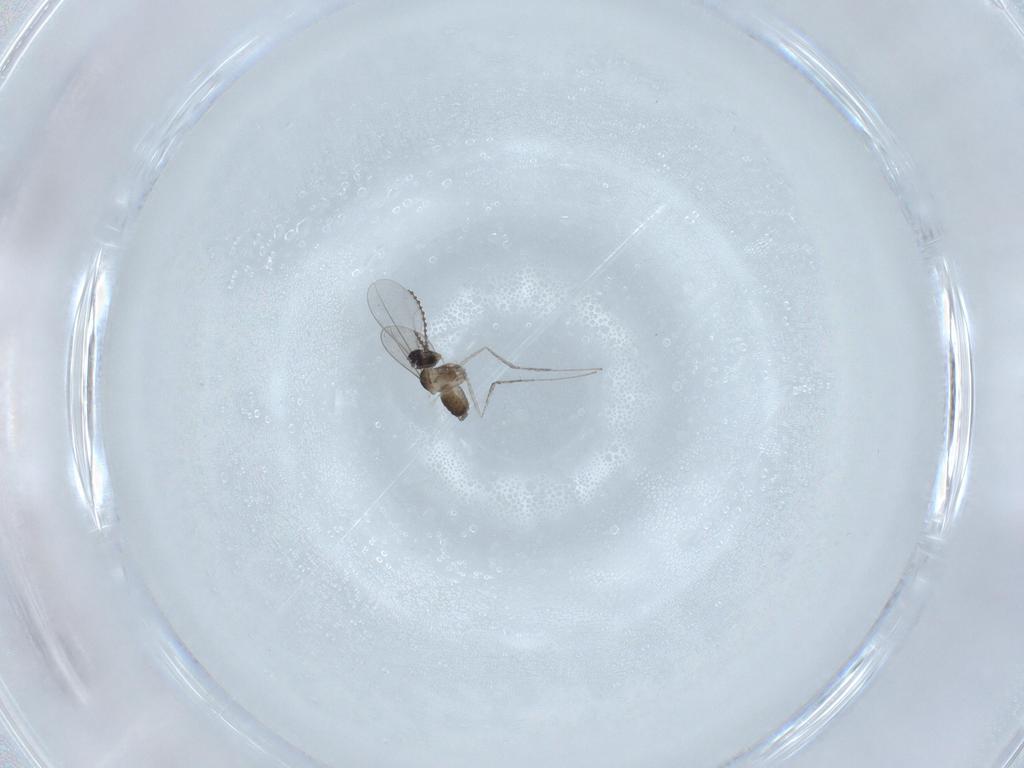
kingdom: Animalia
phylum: Arthropoda
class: Insecta
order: Diptera
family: Cecidomyiidae
